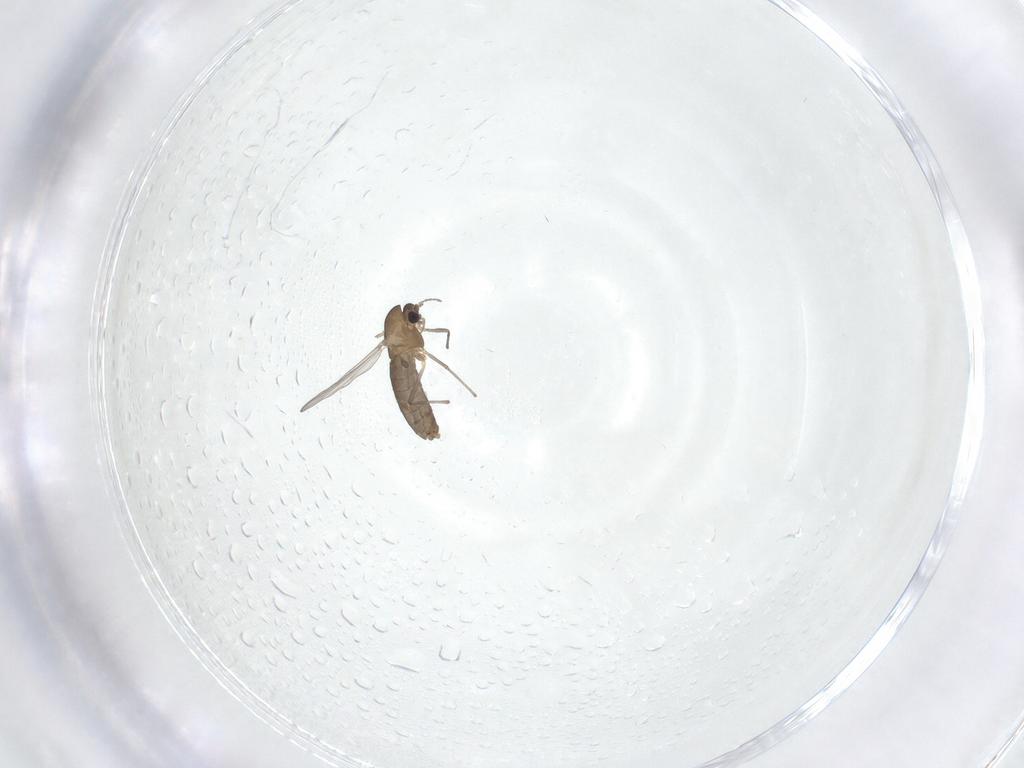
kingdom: Animalia
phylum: Arthropoda
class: Insecta
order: Diptera
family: Chironomidae
